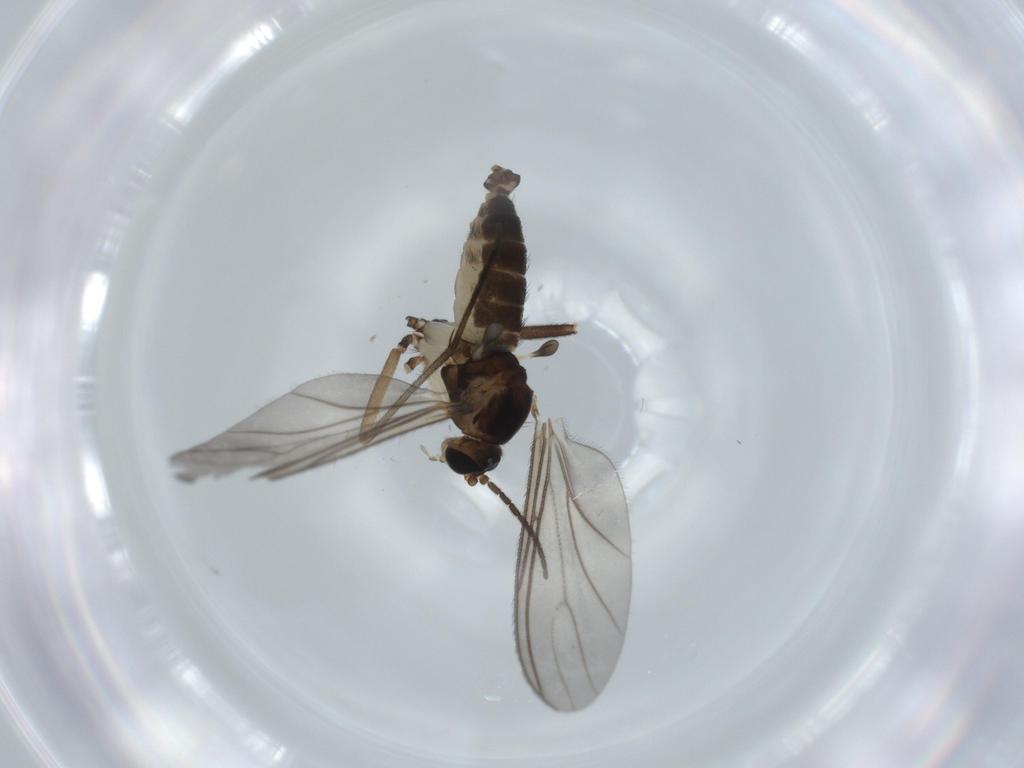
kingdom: Animalia
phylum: Arthropoda
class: Insecta
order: Diptera
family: Sciaridae
